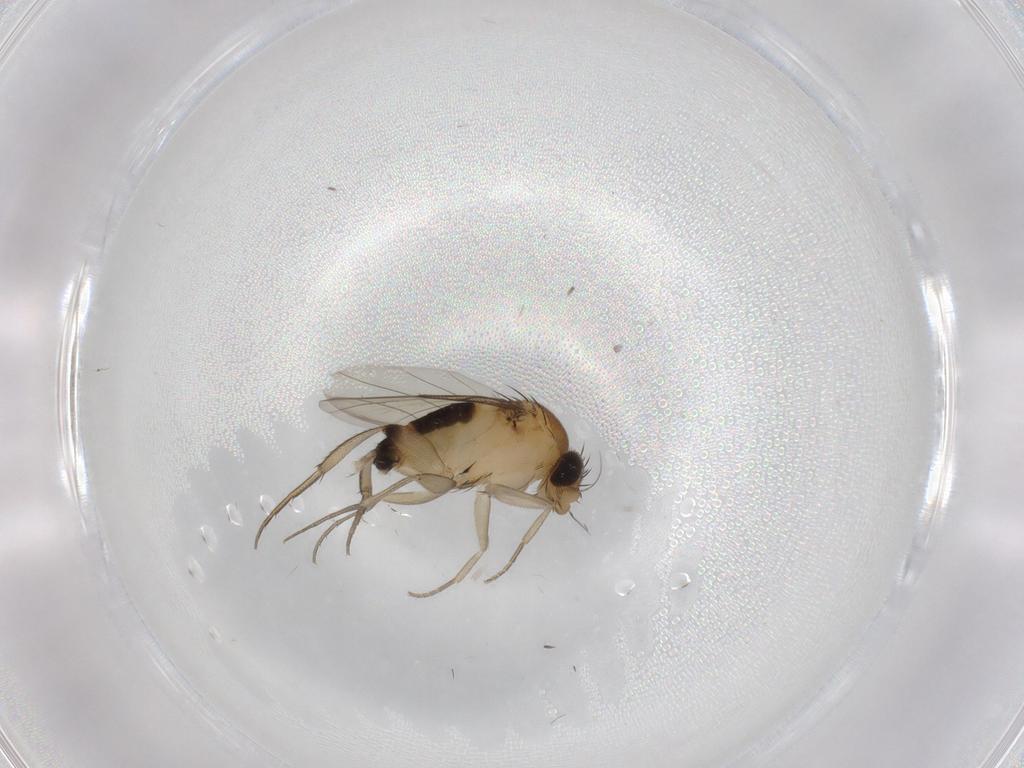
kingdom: Animalia
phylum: Arthropoda
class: Insecta
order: Diptera
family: Phoridae
